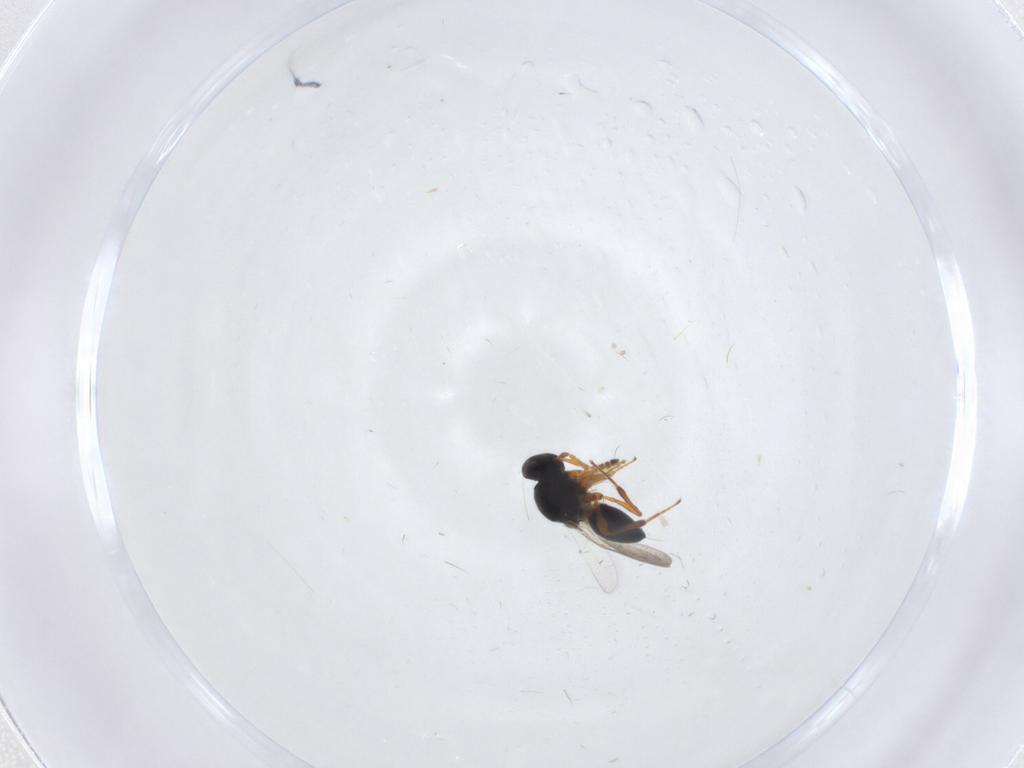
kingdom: Animalia
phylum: Arthropoda
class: Insecta
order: Hymenoptera
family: Platygastridae
